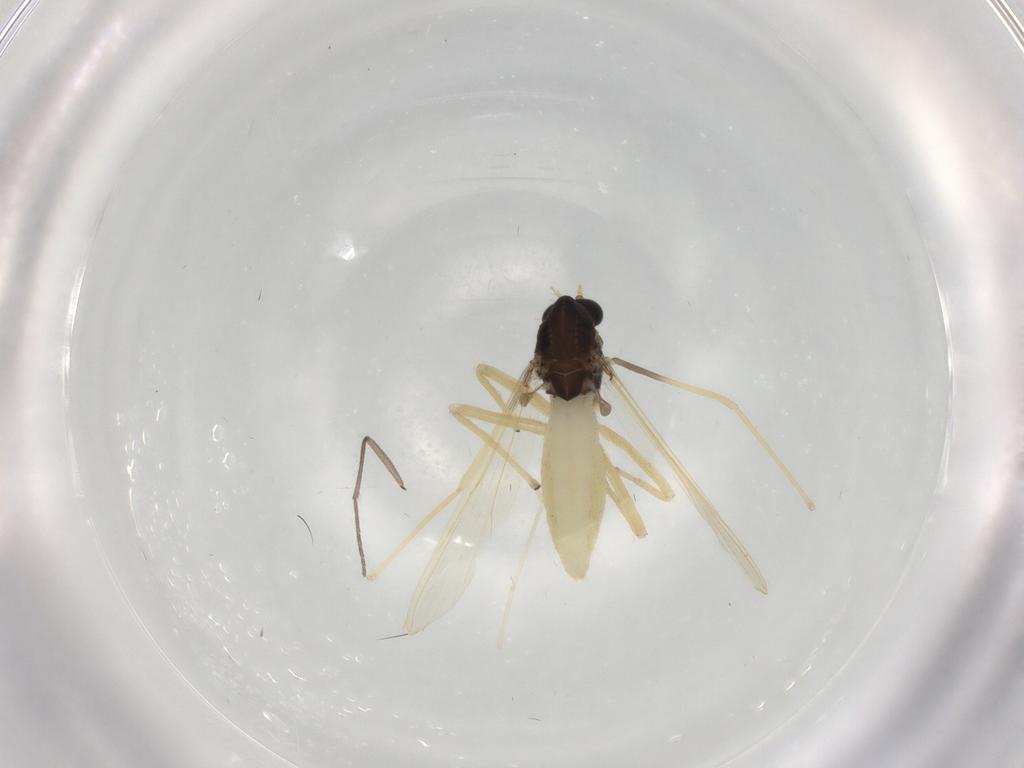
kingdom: Animalia
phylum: Arthropoda
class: Insecta
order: Diptera
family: Chironomidae
